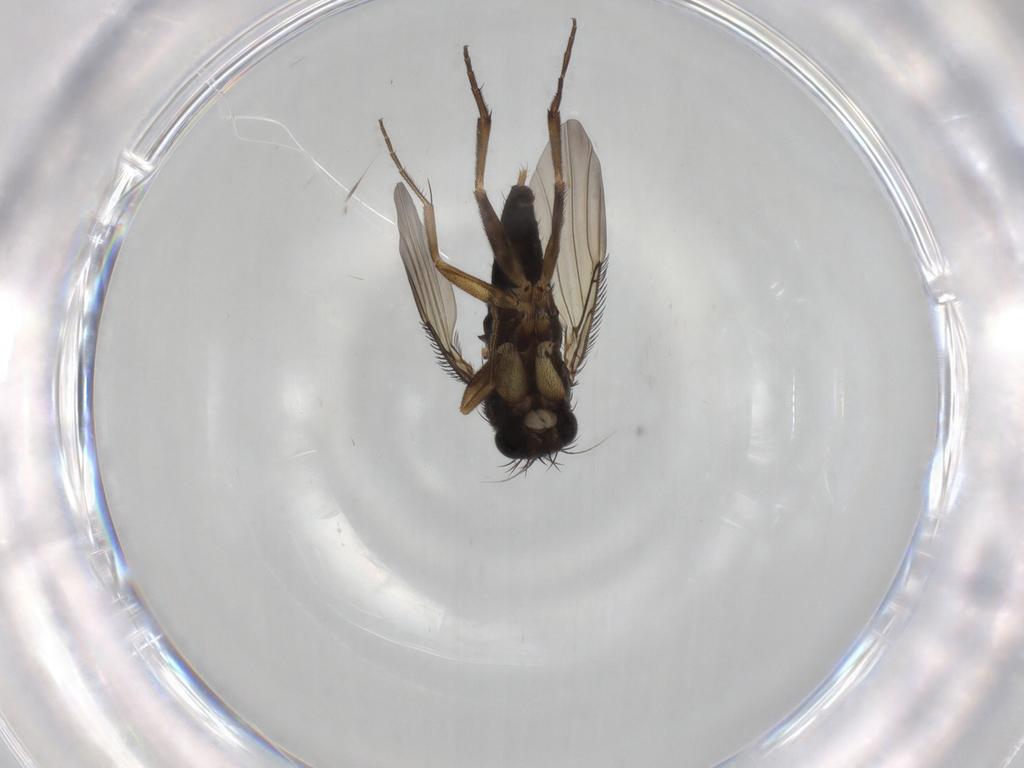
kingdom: Animalia
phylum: Arthropoda
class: Insecta
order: Diptera
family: Phoridae
